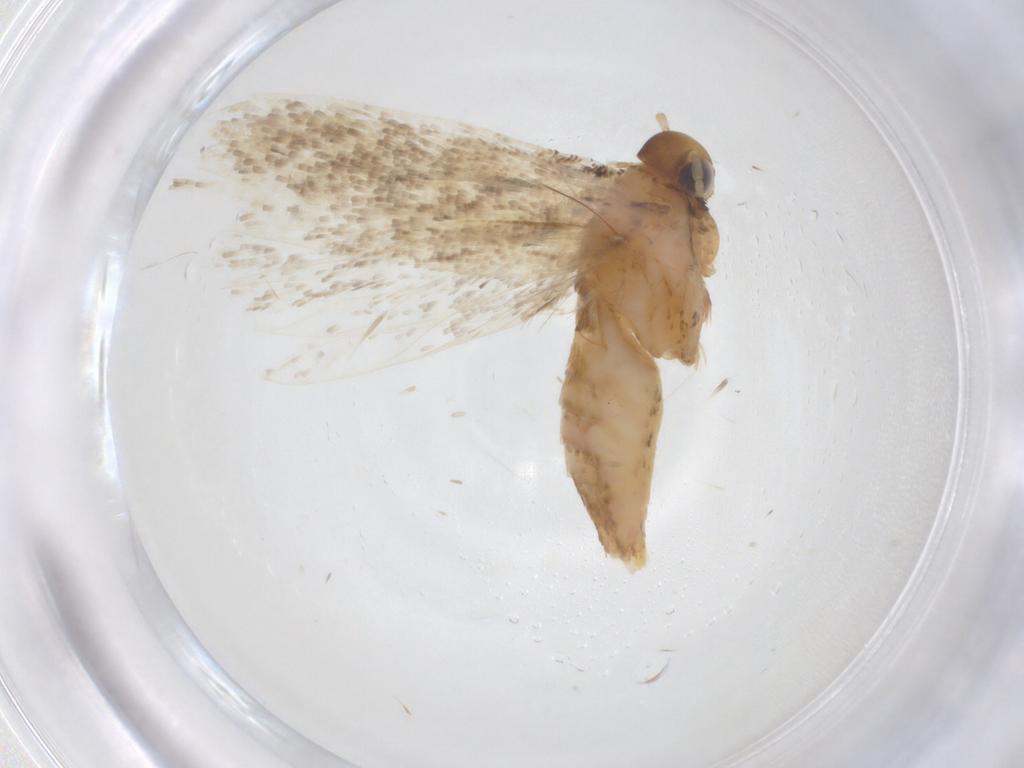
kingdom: Animalia
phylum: Arthropoda
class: Insecta
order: Lepidoptera
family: Gelechiidae
